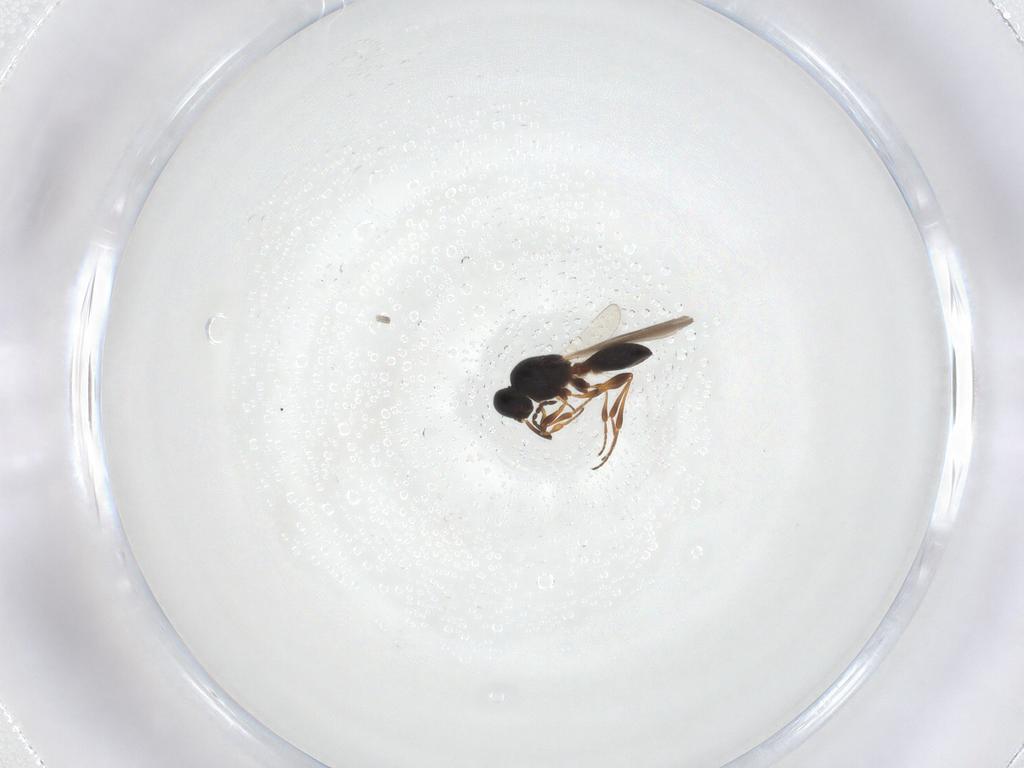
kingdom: Animalia
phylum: Arthropoda
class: Insecta
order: Hymenoptera
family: Platygastridae
